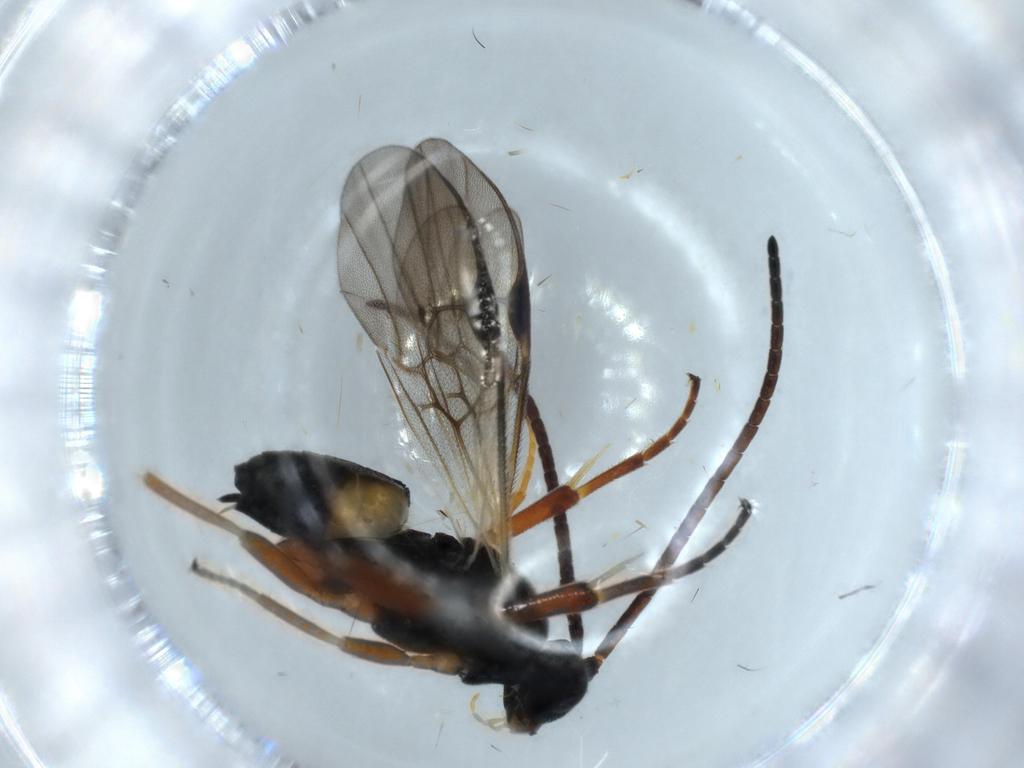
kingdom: Animalia
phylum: Arthropoda
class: Insecta
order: Hymenoptera
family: Braconidae
